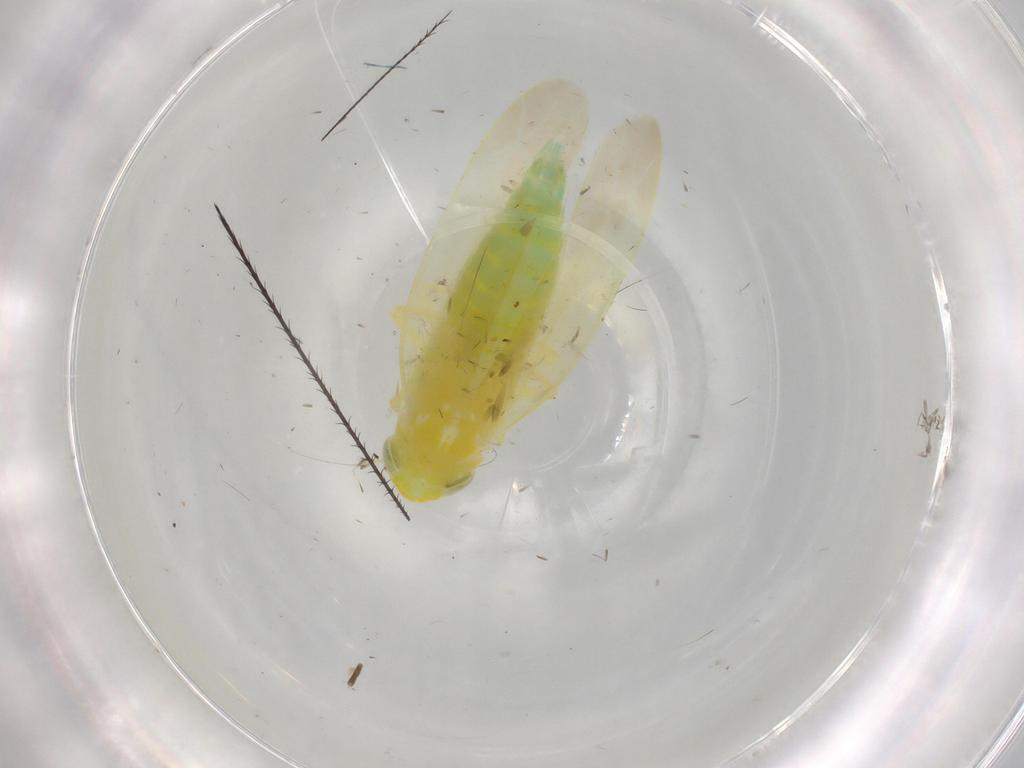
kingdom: Animalia
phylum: Arthropoda
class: Insecta
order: Hemiptera
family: Cicadellidae
